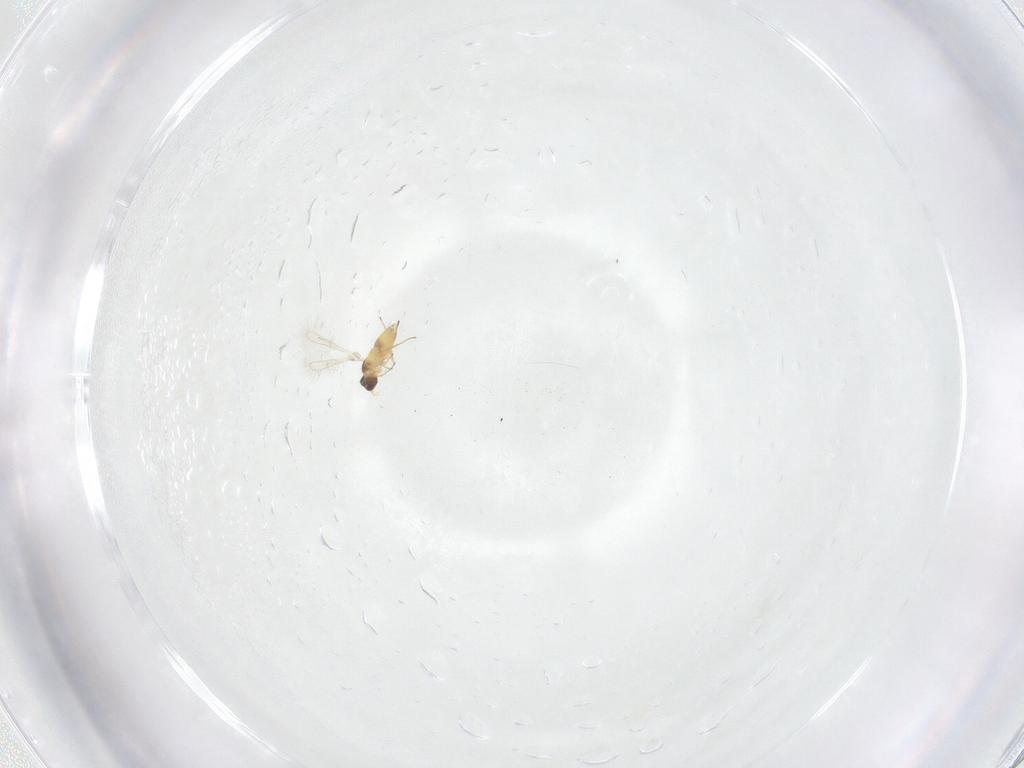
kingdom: Animalia
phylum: Arthropoda
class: Insecta
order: Hymenoptera
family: Mymaridae
